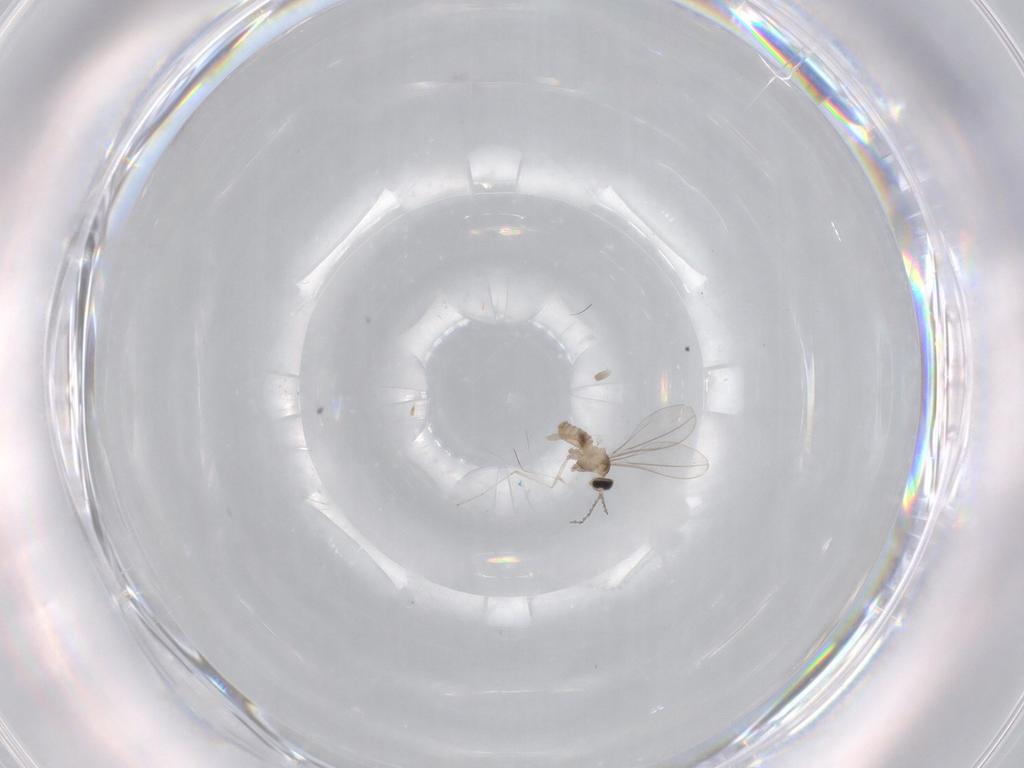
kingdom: Animalia
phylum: Arthropoda
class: Insecta
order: Diptera
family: Cecidomyiidae
